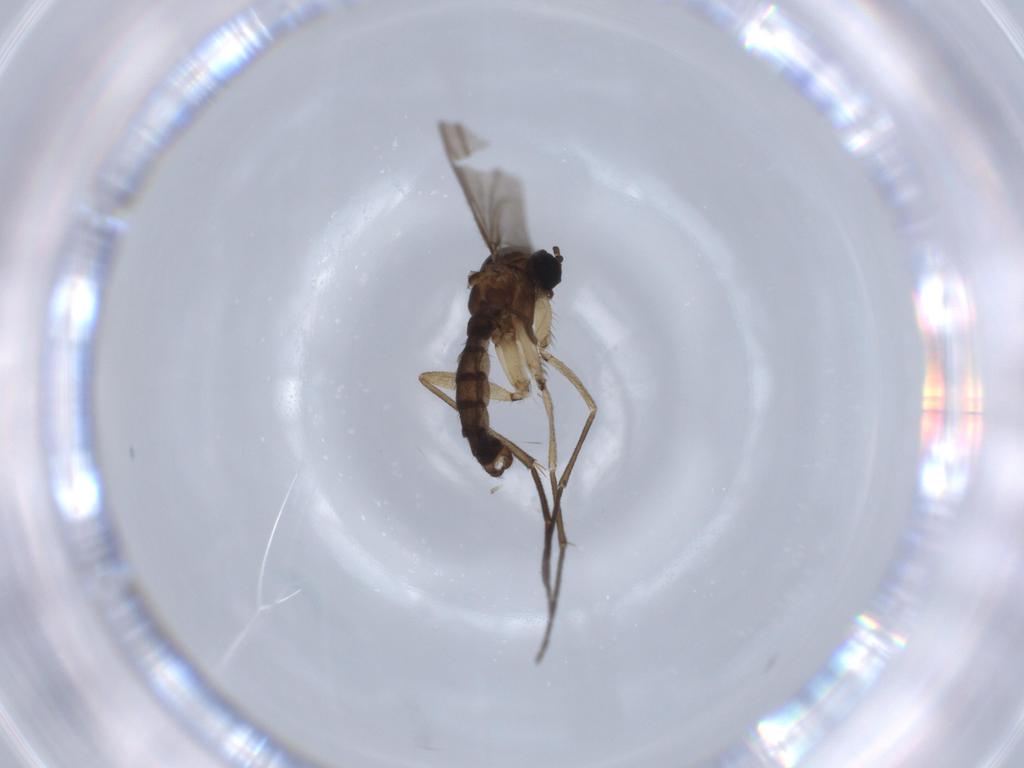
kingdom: Animalia
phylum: Arthropoda
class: Insecta
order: Diptera
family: Sciaridae
